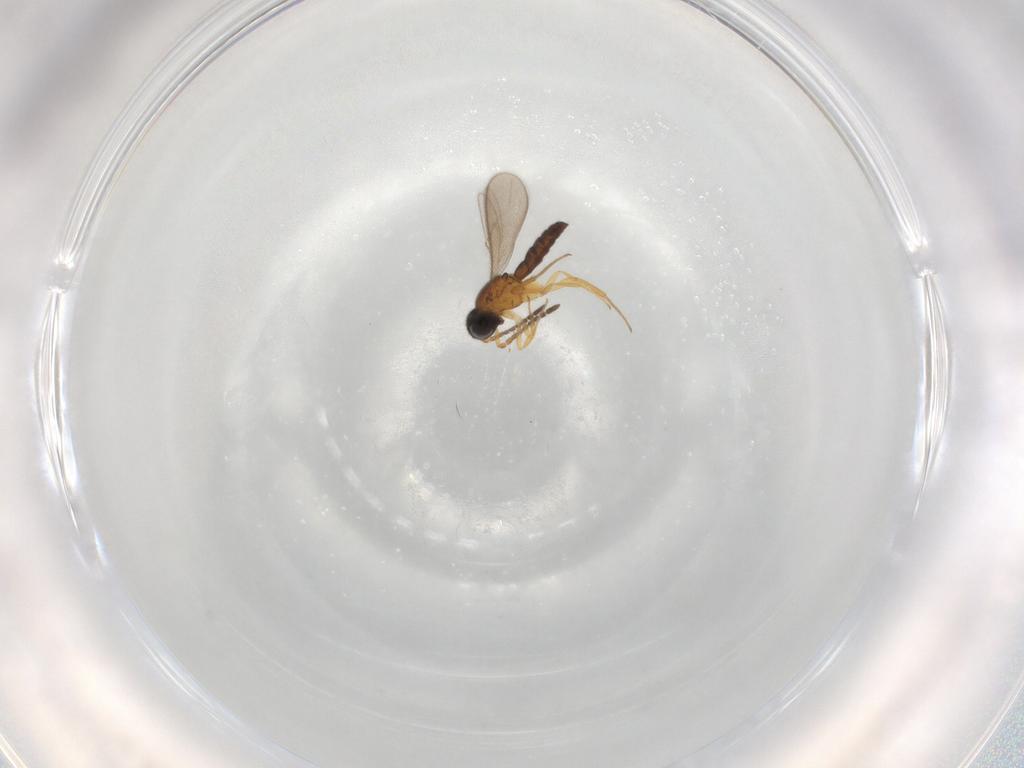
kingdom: Animalia
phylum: Arthropoda
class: Insecta
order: Hymenoptera
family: Scelionidae
